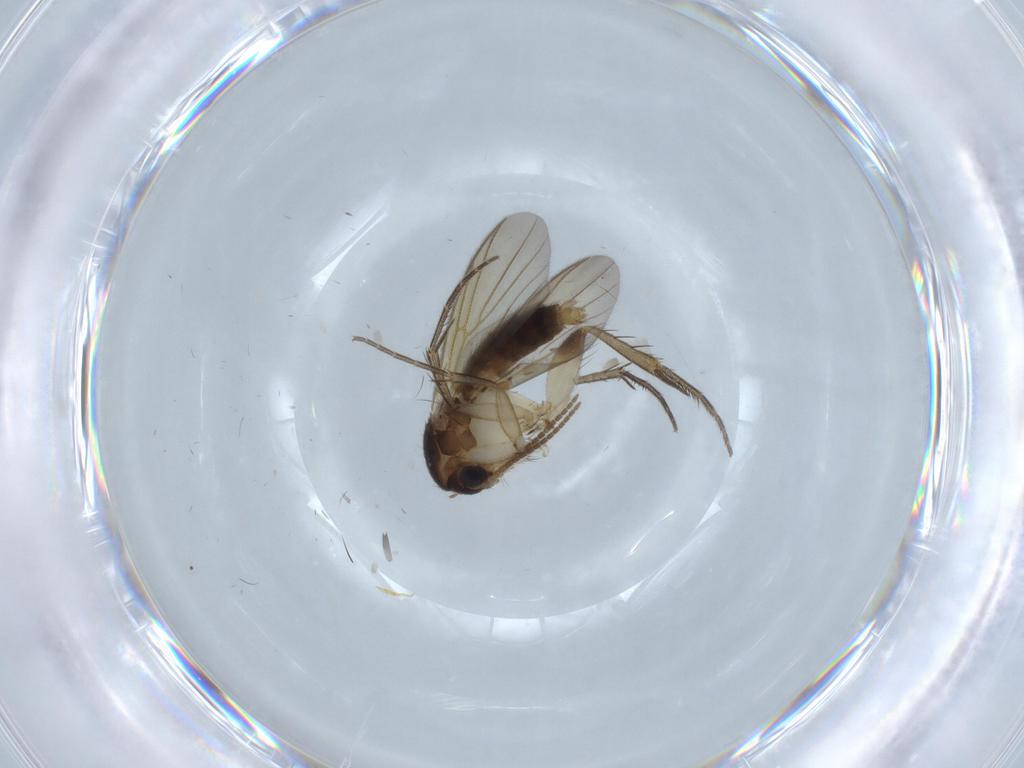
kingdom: Animalia
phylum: Arthropoda
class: Insecta
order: Diptera
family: Mycetophilidae
